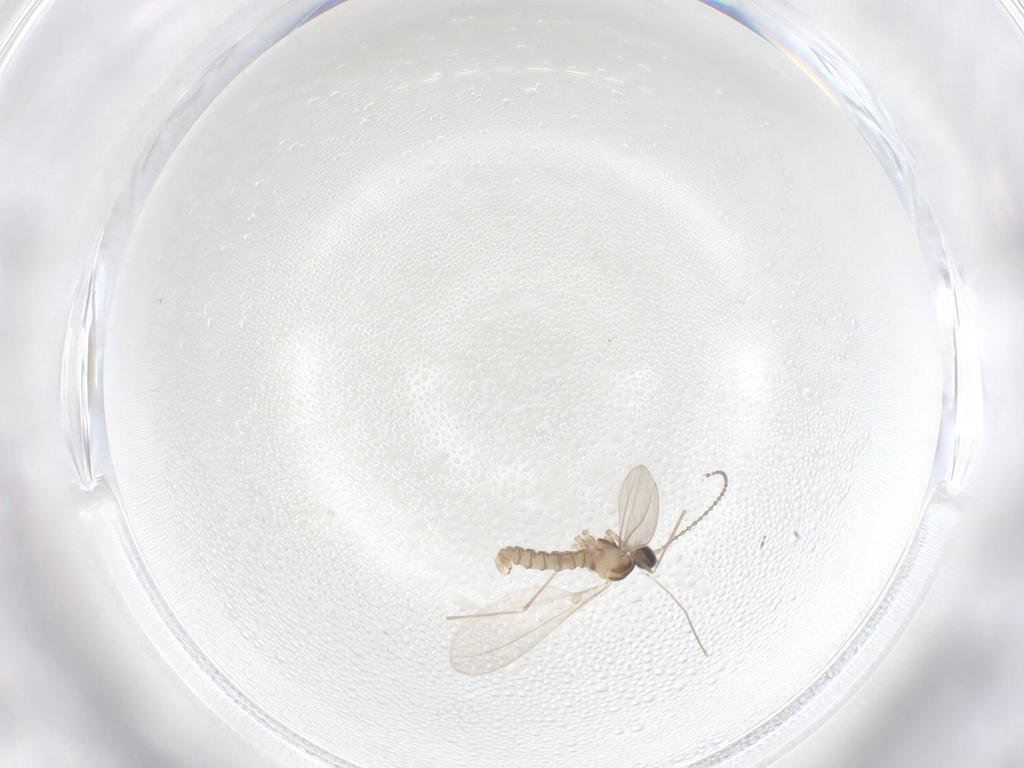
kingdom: Animalia
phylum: Arthropoda
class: Insecta
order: Diptera
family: Cecidomyiidae
